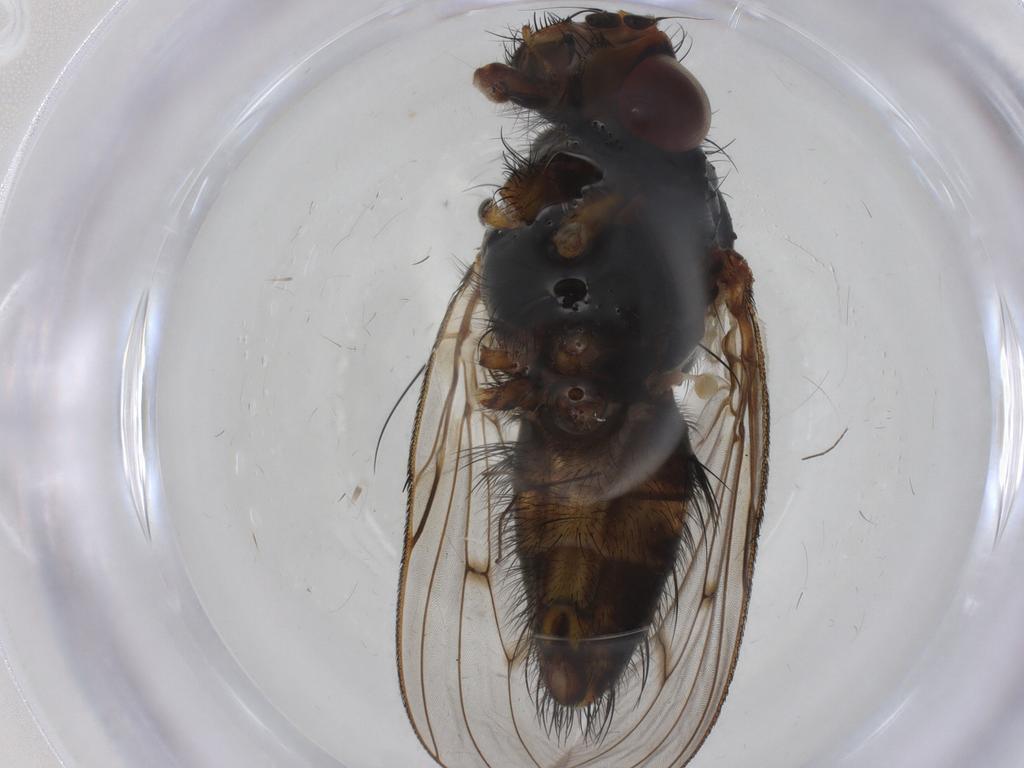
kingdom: Animalia
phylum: Arthropoda
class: Insecta
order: Diptera
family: Anthomyiidae
